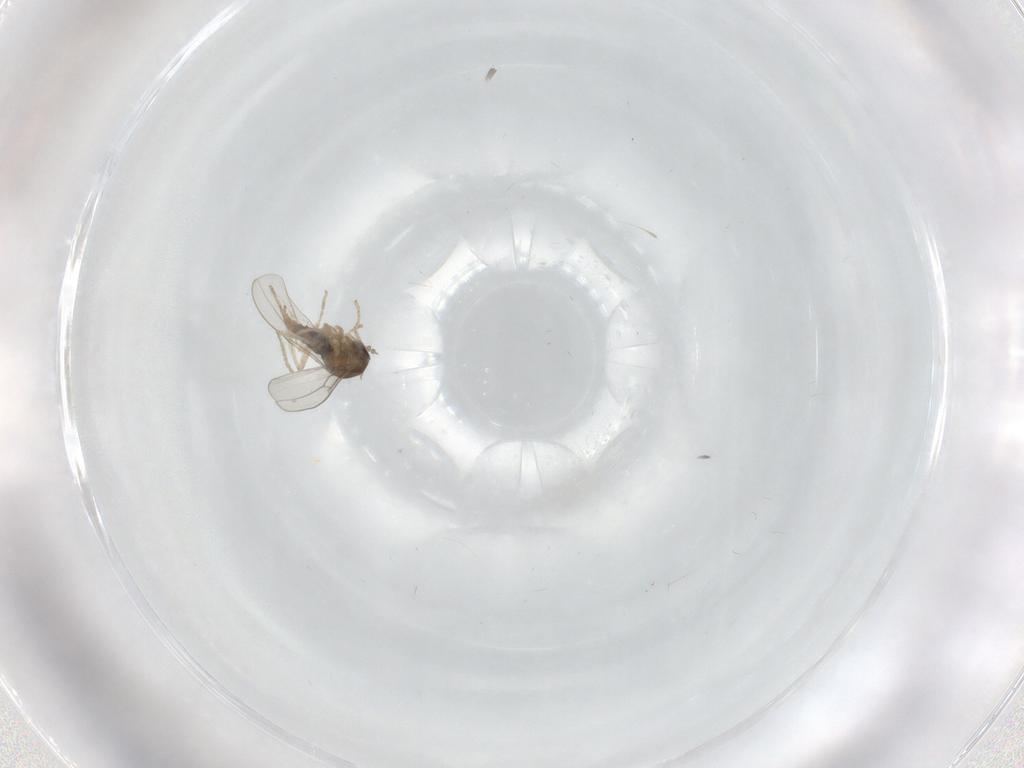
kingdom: Animalia
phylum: Arthropoda
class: Insecta
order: Diptera
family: Cecidomyiidae
